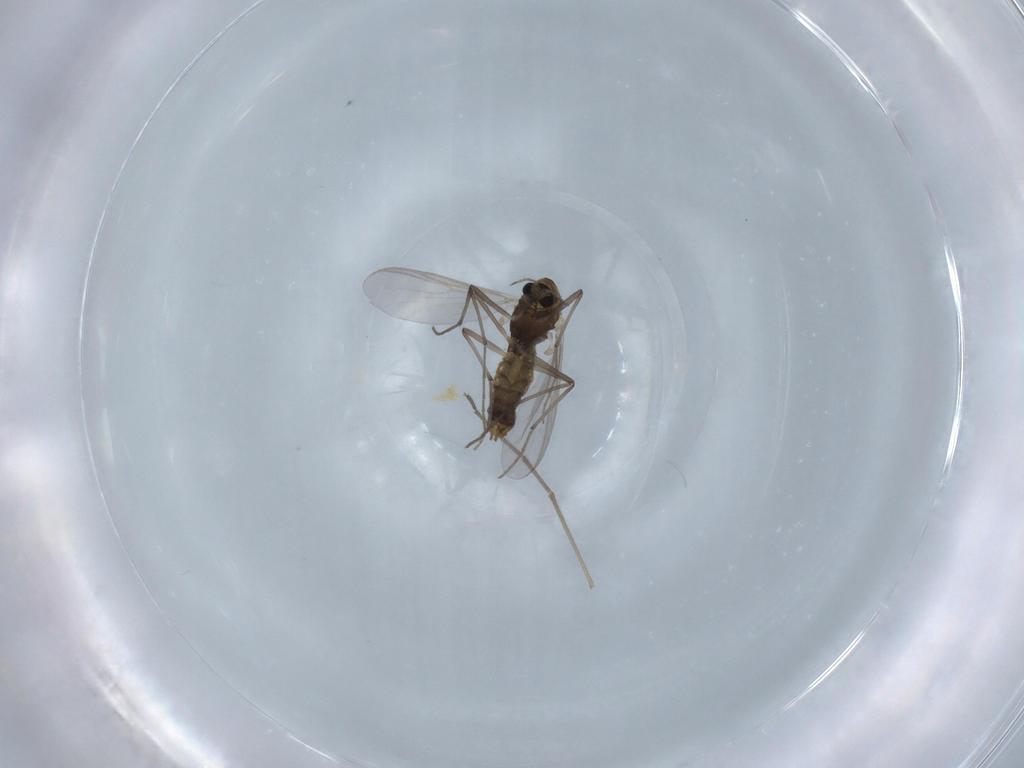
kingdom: Animalia
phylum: Arthropoda
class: Insecta
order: Diptera
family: Chironomidae
